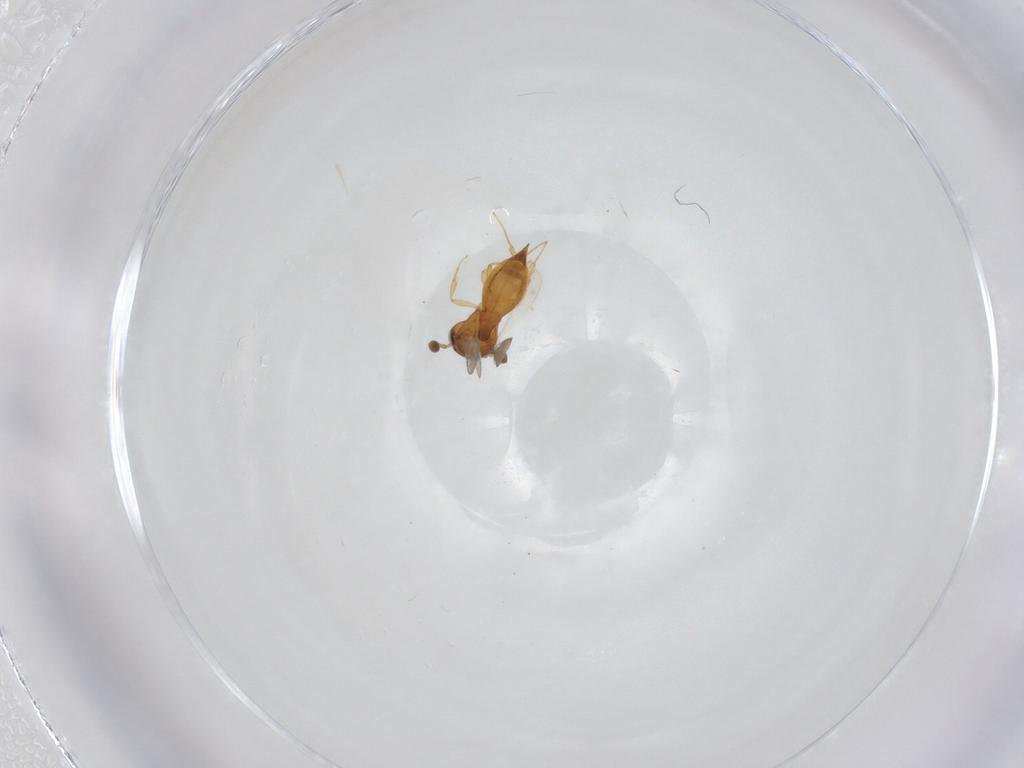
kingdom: Animalia
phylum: Arthropoda
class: Insecta
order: Hymenoptera
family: Scelionidae
